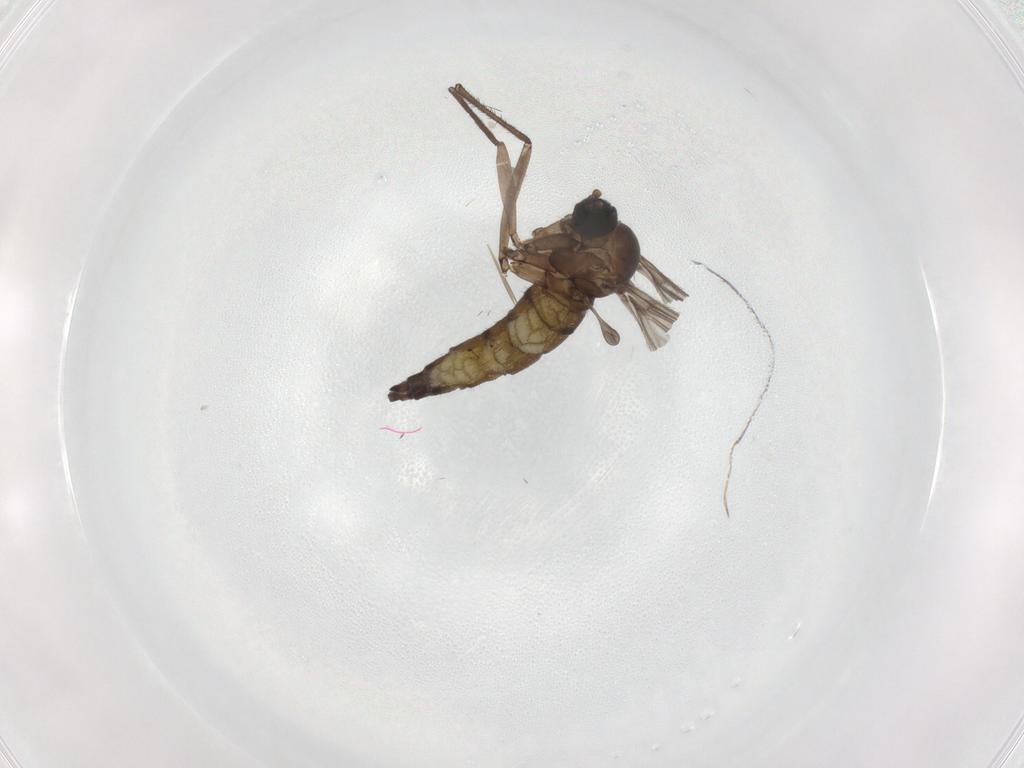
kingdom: Animalia
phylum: Arthropoda
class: Insecta
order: Diptera
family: Sciaridae
